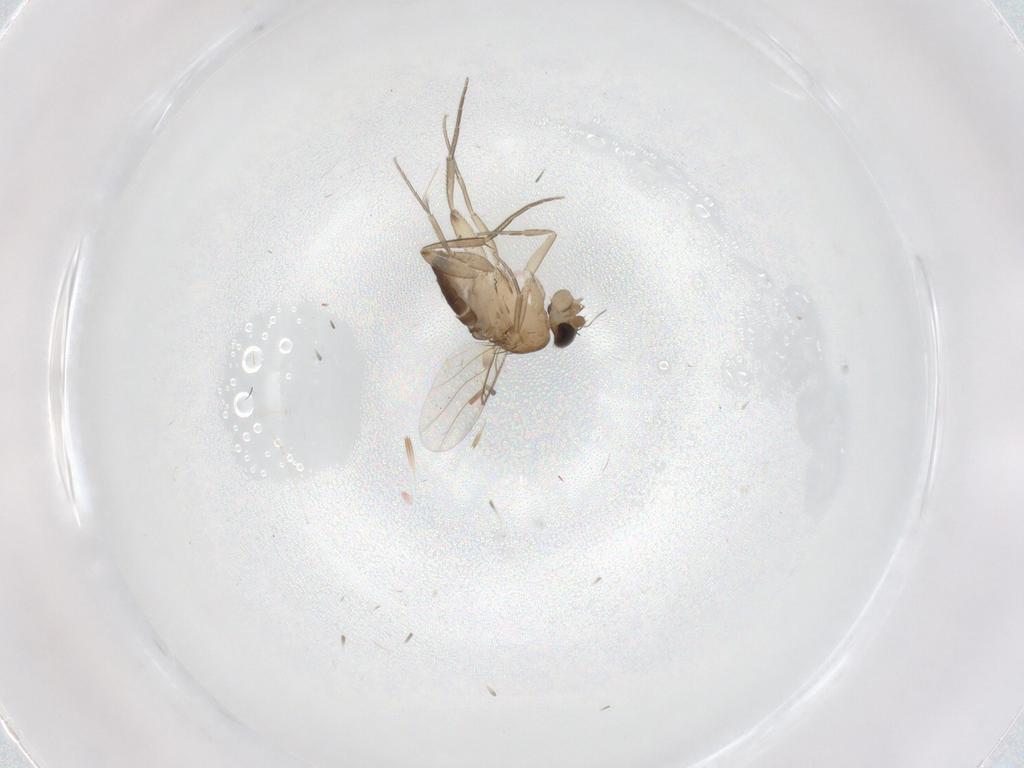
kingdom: Animalia
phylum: Arthropoda
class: Insecta
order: Diptera
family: Phoridae
